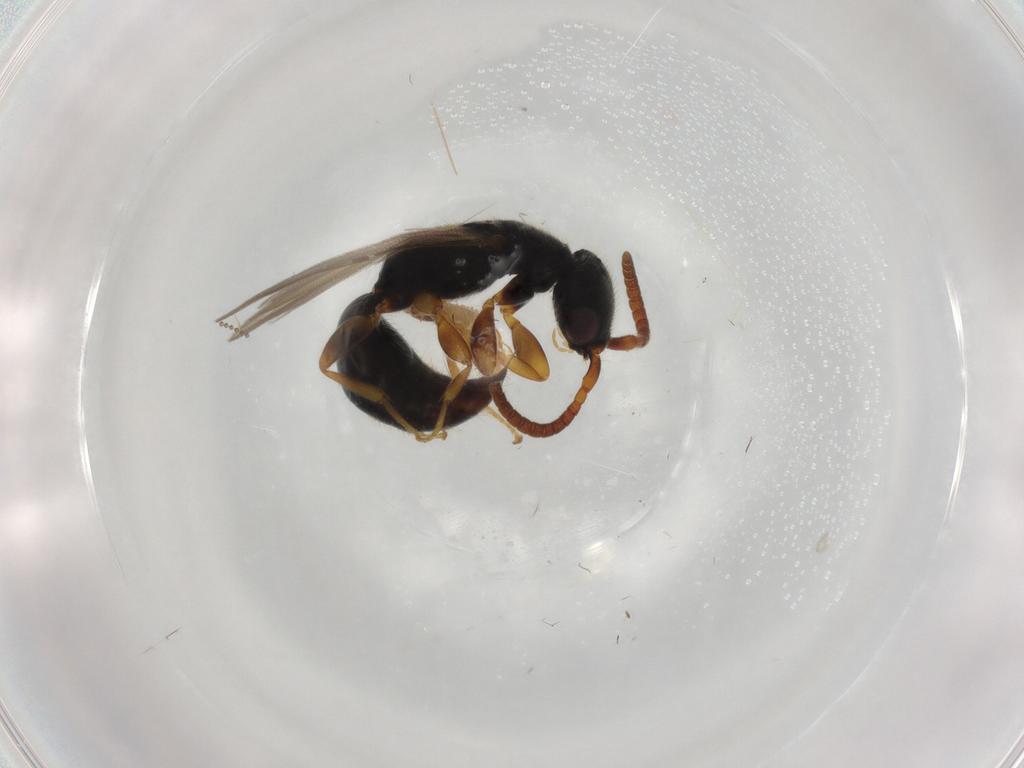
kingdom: Animalia
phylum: Arthropoda
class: Insecta
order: Hymenoptera
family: Bethylidae
